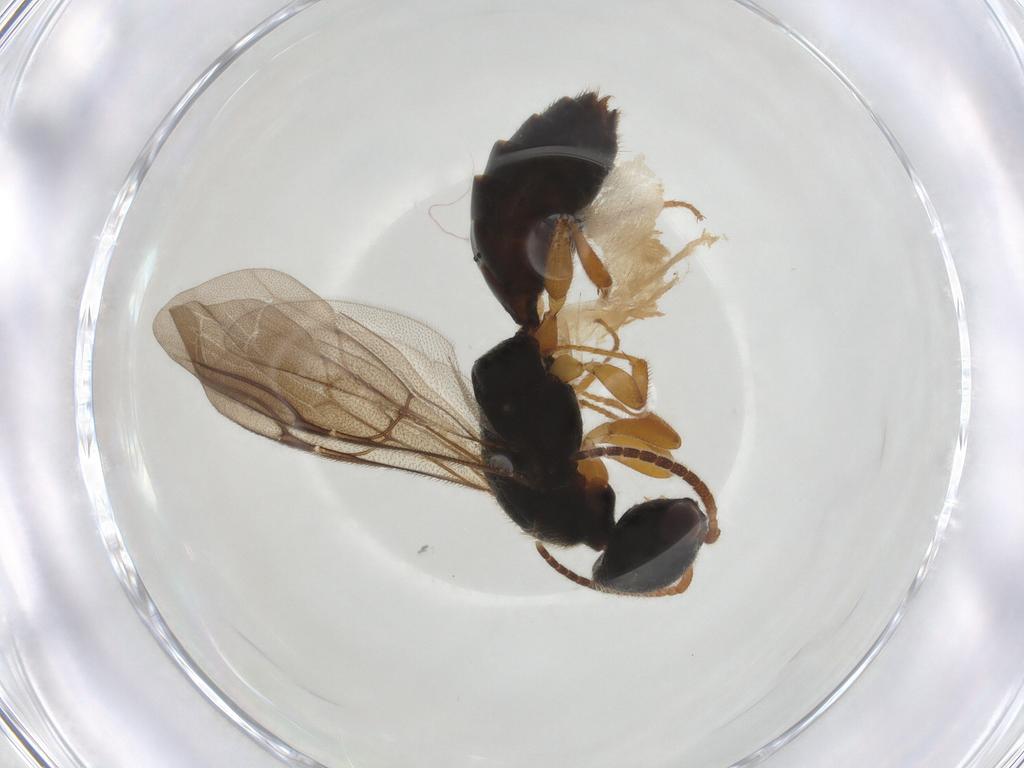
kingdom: Animalia
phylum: Arthropoda
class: Insecta
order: Hymenoptera
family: Bethylidae
